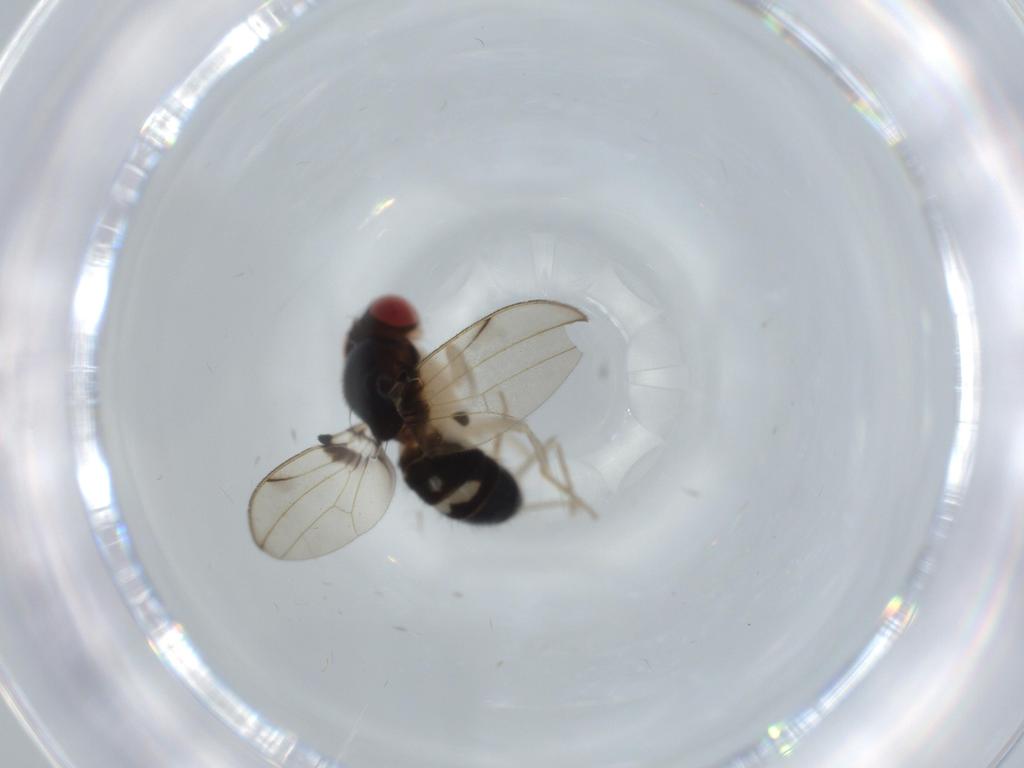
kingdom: Animalia
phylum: Arthropoda
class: Insecta
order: Diptera
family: Drosophilidae
